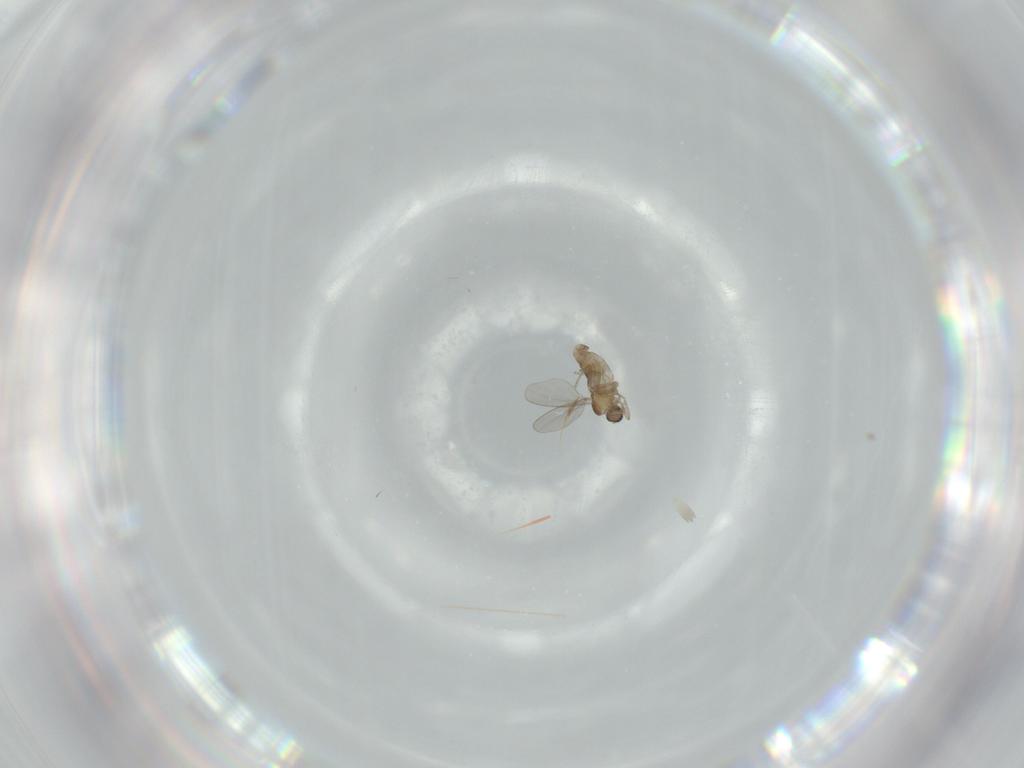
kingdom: Animalia
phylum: Arthropoda
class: Insecta
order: Diptera
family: Cecidomyiidae
